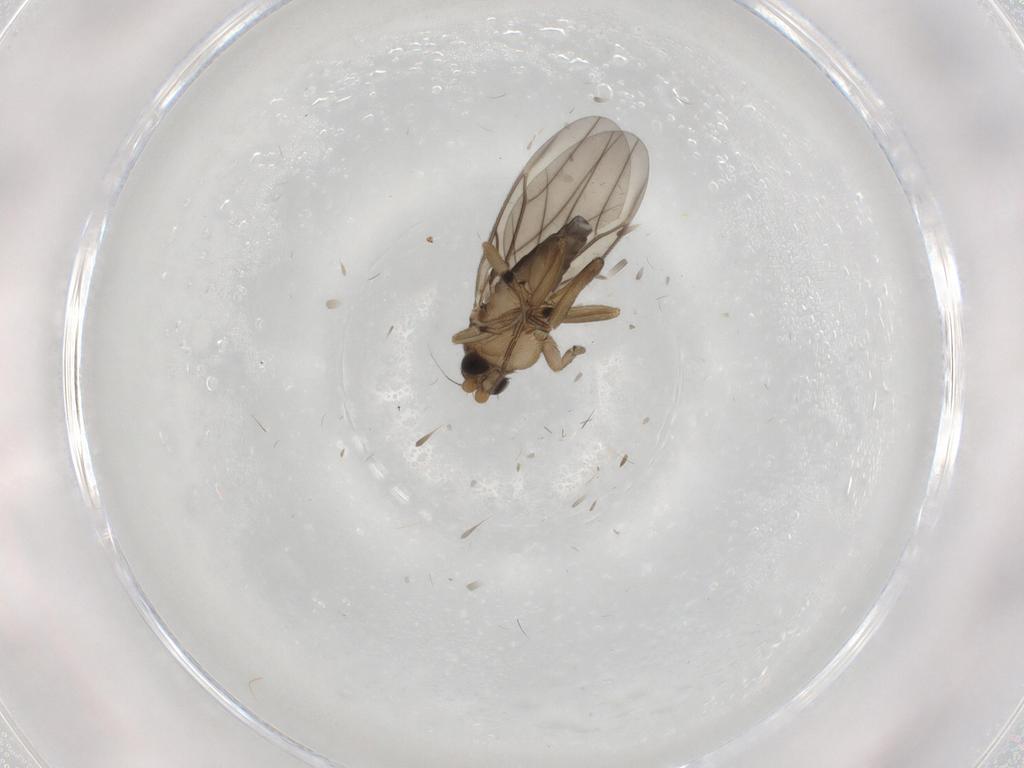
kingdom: Animalia
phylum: Arthropoda
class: Insecta
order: Diptera
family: Phoridae
